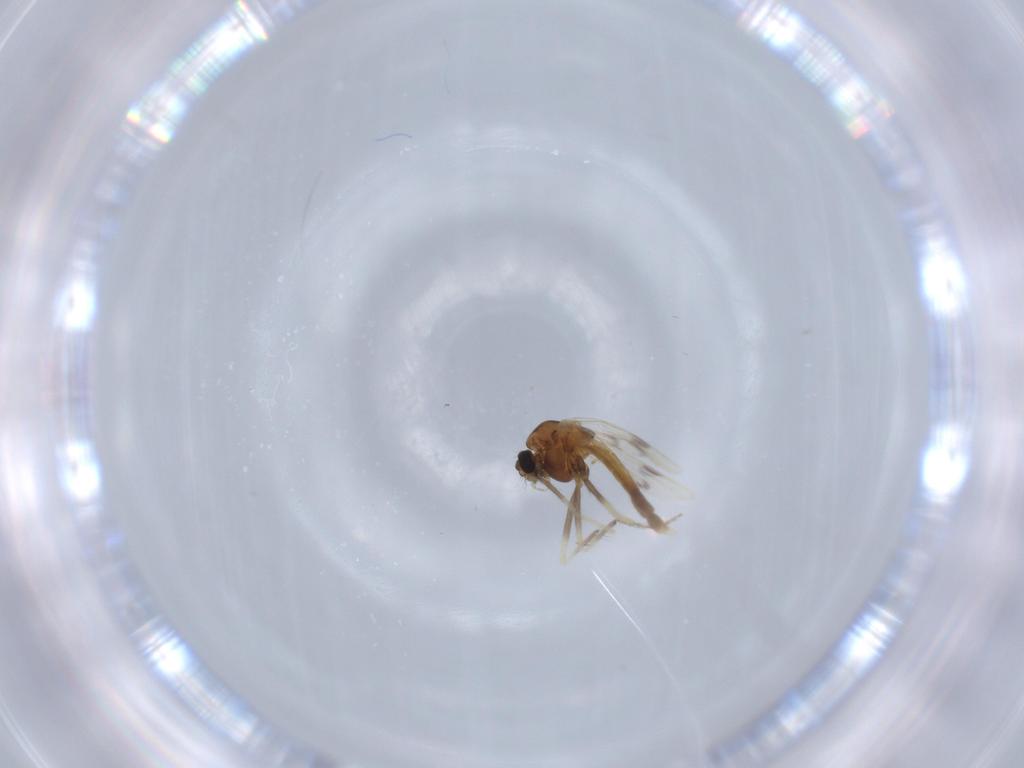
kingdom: Animalia
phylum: Arthropoda
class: Insecta
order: Diptera
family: Chironomidae
